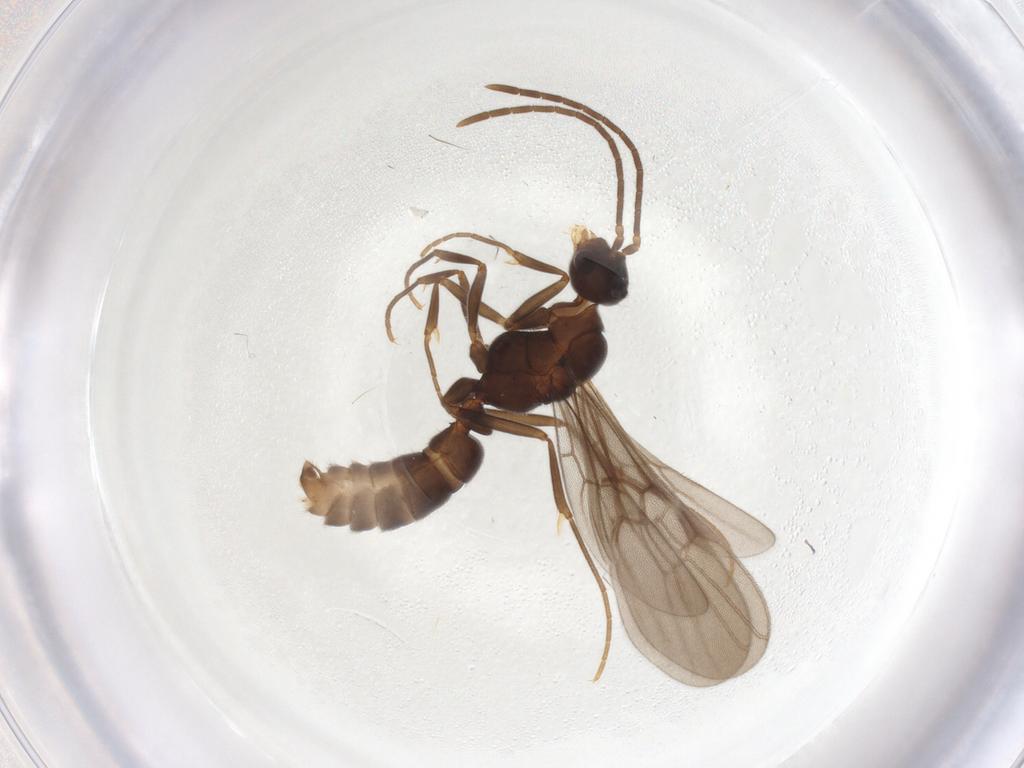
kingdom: Animalia
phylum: Arthropoda
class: Insecta
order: Hymenoptera
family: Formicidae
